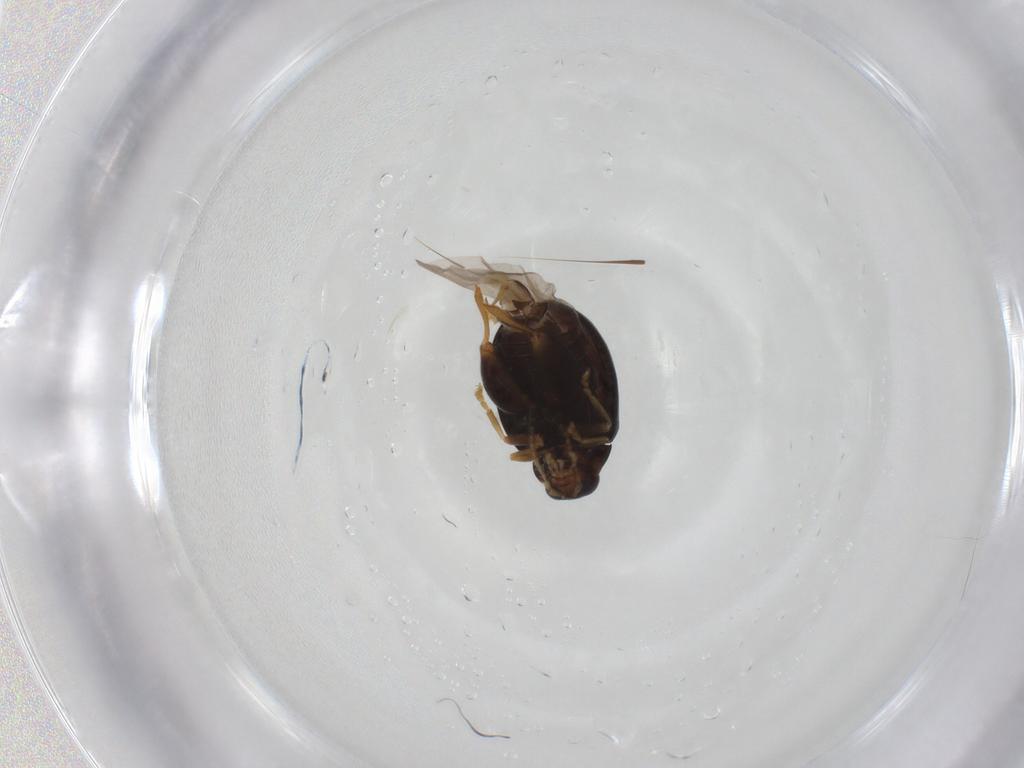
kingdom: Animalia
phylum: Arthropoda
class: Insecta
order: Coleoptera
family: Chrysomelidae
